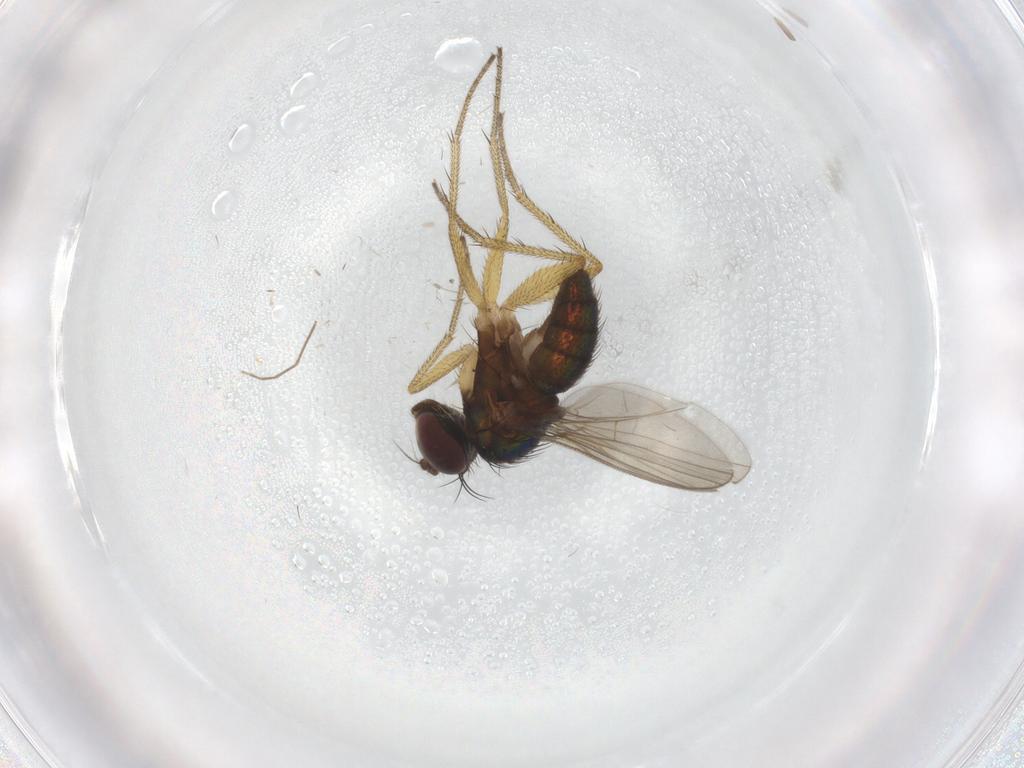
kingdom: Animalia
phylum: Arthropoda
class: Insecta
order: Diptera
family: Dolichopodidae
